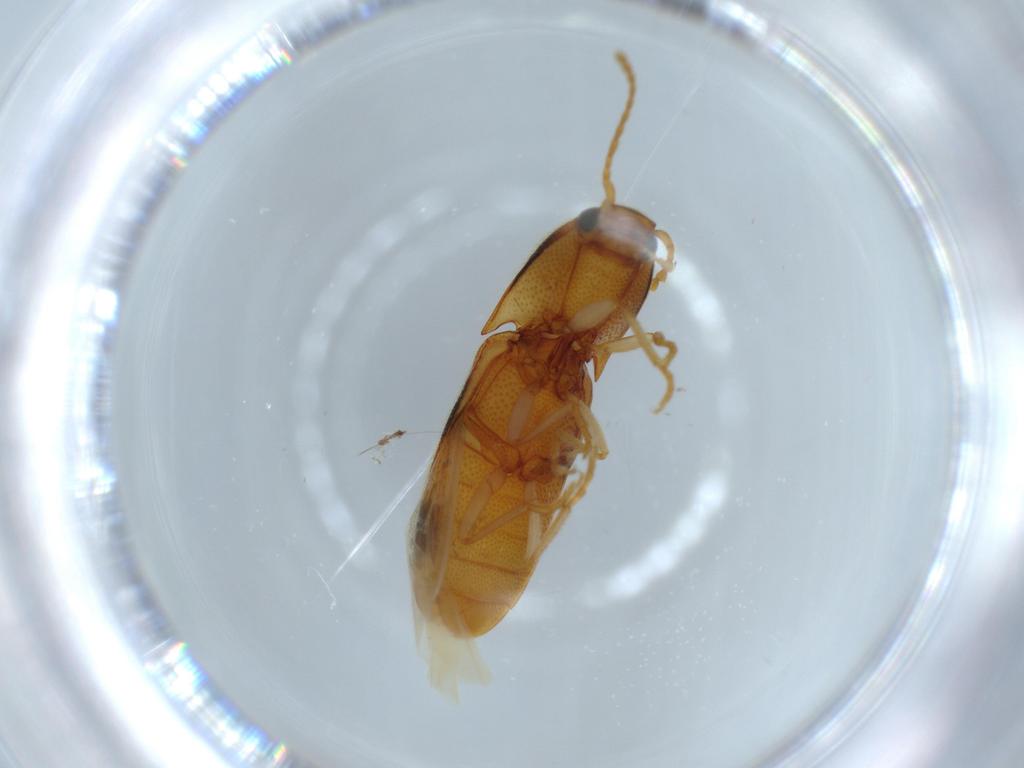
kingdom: Animalia
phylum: Arthropoda
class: Insecta
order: Coleoptera
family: Elateridae
